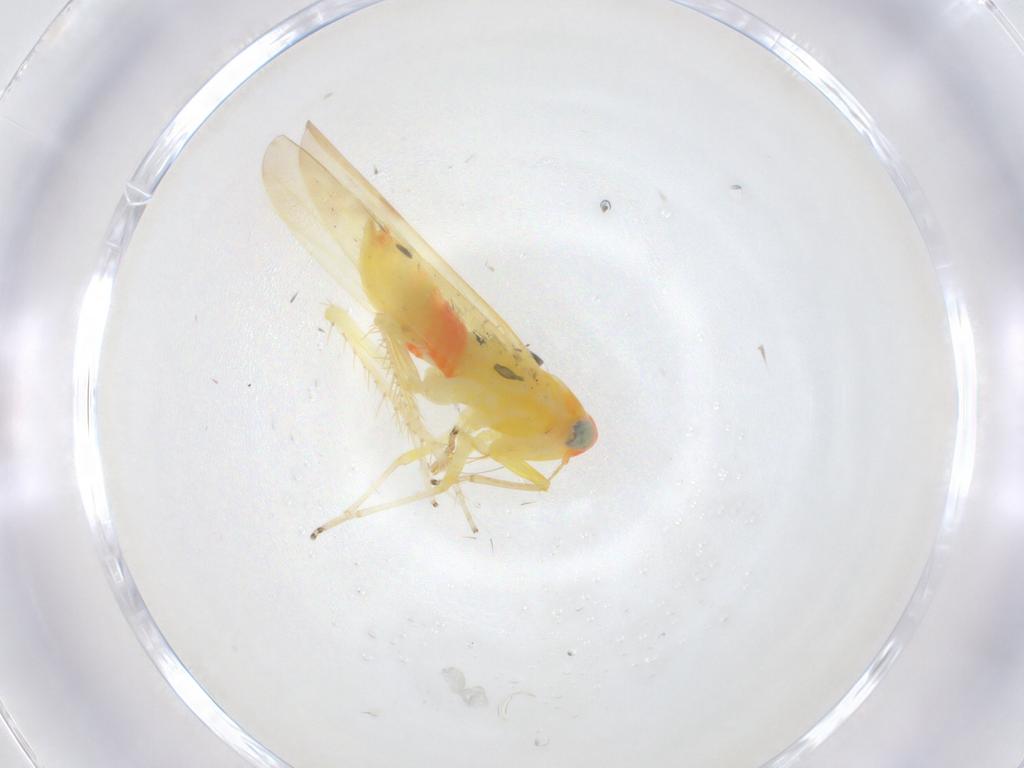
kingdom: Animalia
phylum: Arthropoda
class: Insecta
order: Hemiptera
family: Cicadellidae
